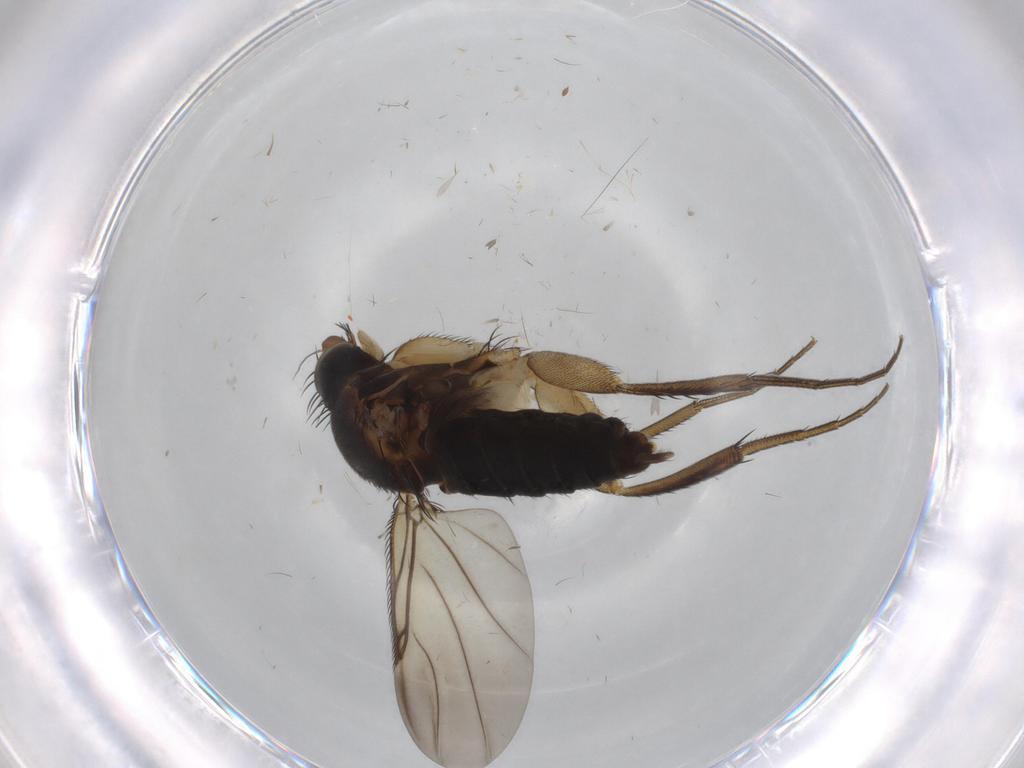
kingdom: Animalia
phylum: Arthropoda
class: Insecta
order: Diptera
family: Phoridae
